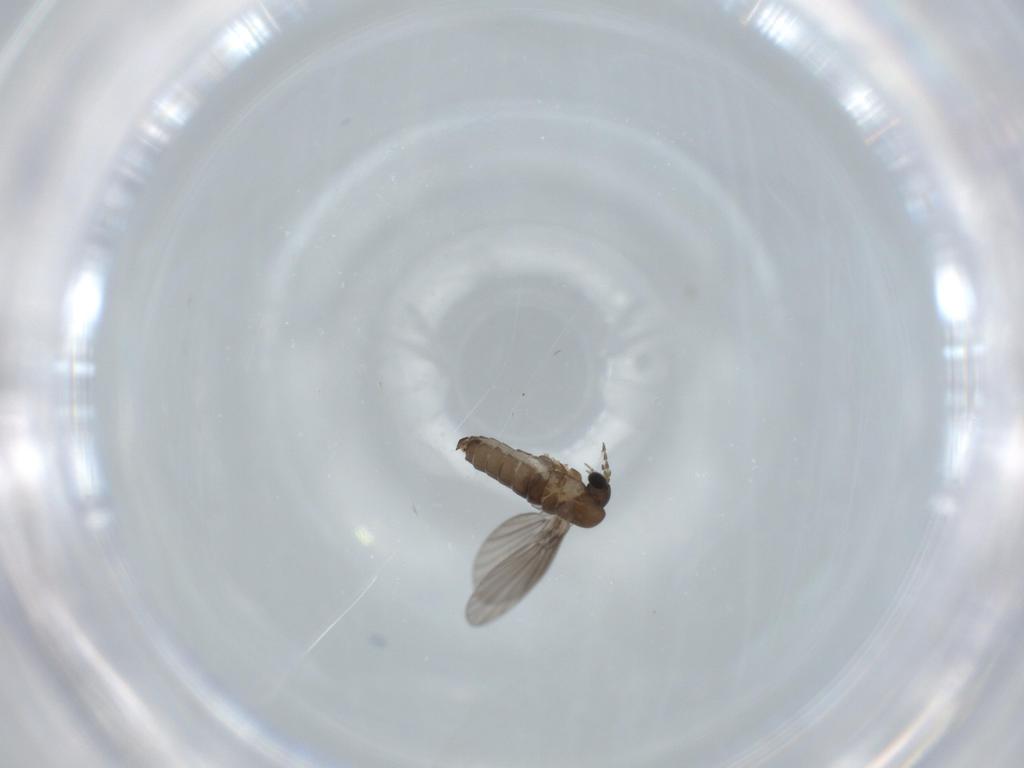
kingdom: Animalia
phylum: Arthropoda
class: Insecta
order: Diptera
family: Psychodidae
